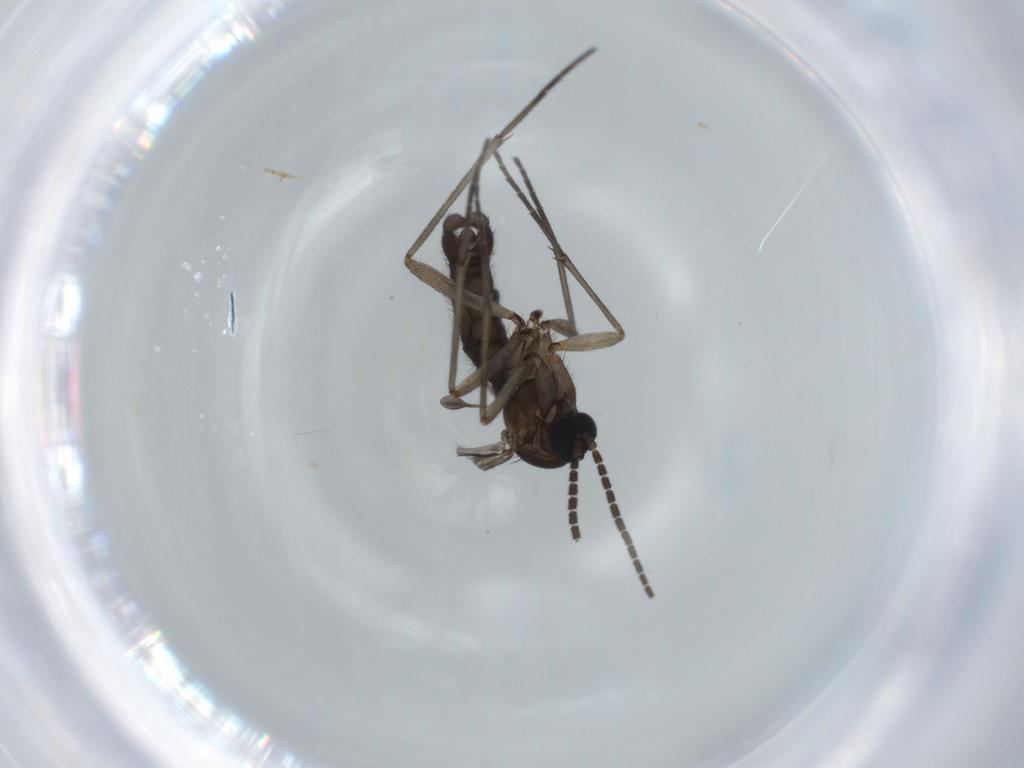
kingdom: Animalia
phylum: Arthropoda
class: Insecta
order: Diptera
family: Sciaridae
